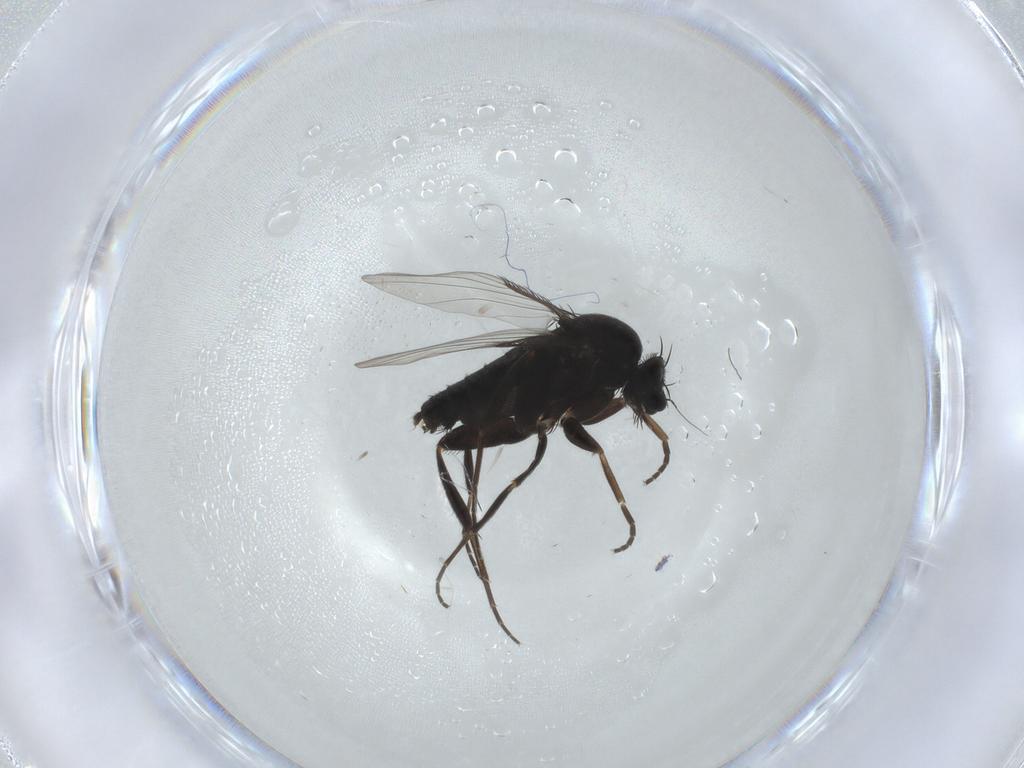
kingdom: Animalia
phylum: Arthropoda
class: Insecta
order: Diptera
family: Phoridae
